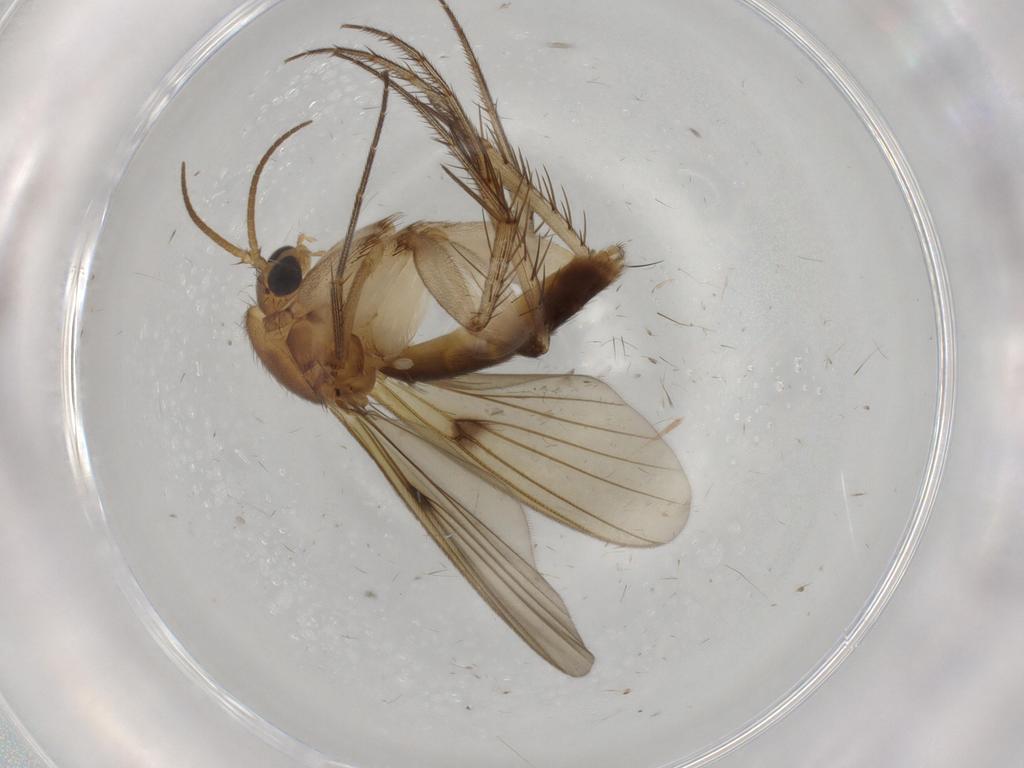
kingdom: Animalia
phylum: Arthropoda
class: Insecta
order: Diptera
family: Mycetophilidae
